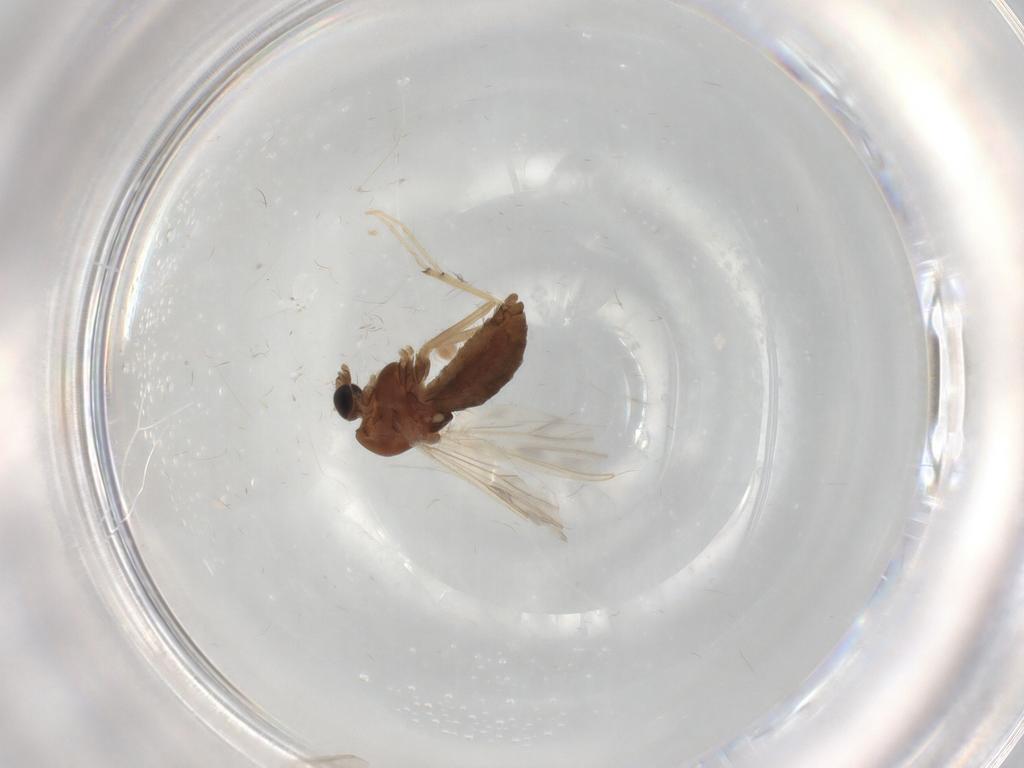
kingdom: Animalia
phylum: Arthropoda
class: Insecta
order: Diptera
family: Chironomidae
